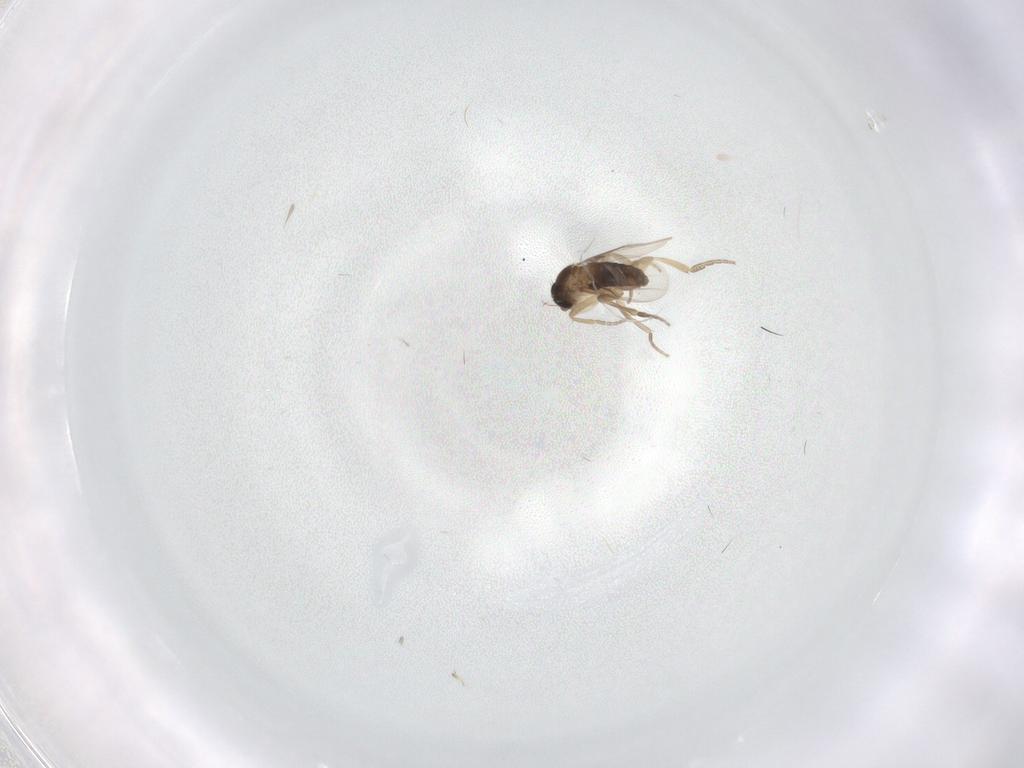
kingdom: Animalia
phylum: Arthropoda
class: Insecta
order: Diptera
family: Phoridae
